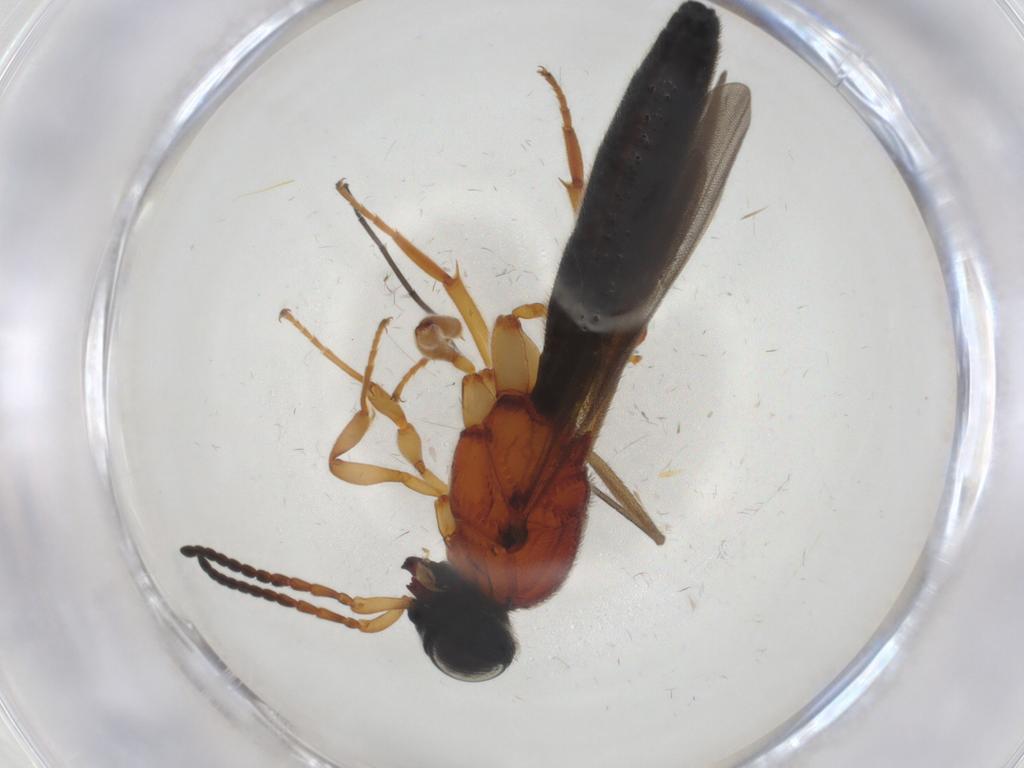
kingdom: Animalia
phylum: Arthropoda
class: Insecta
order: Hymenoptera
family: Scelionidae
